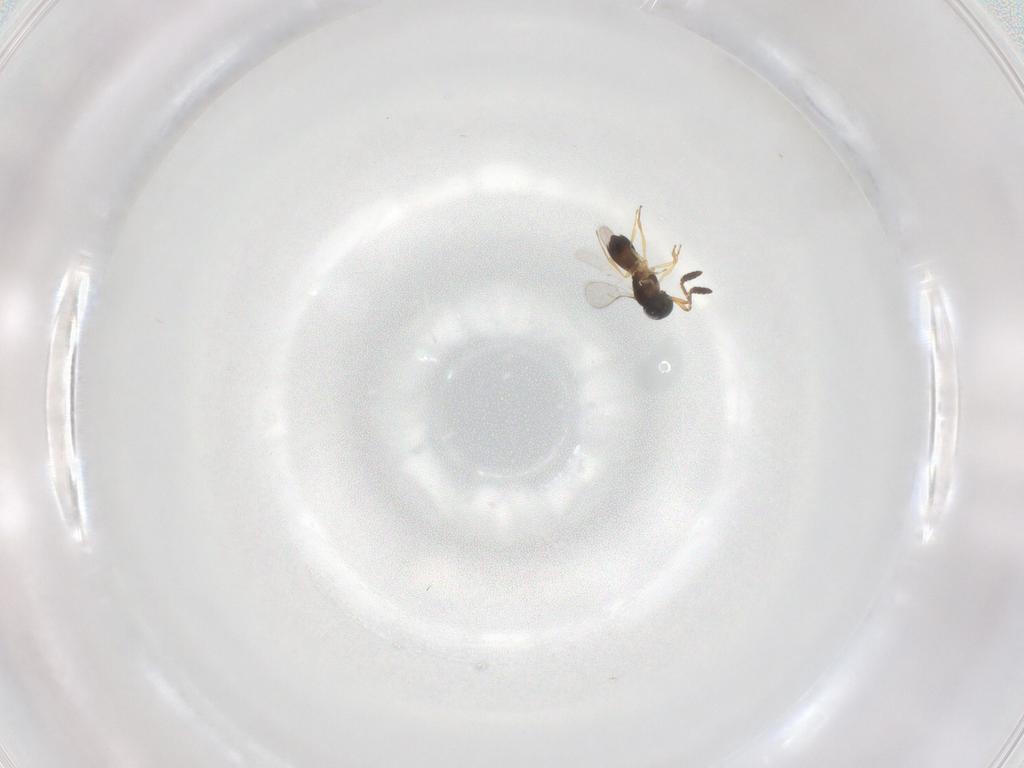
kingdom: Animalia
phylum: Arthropoda
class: Insecta
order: Hymenoptera
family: Scelionidae
